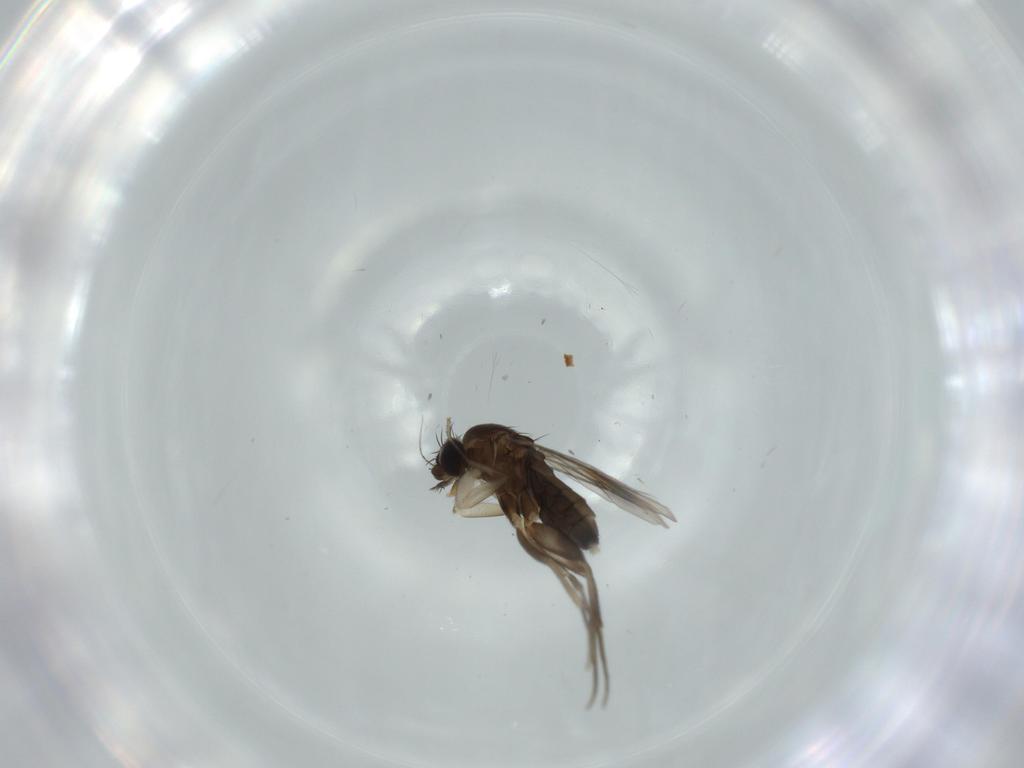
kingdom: Animalia
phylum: Arthropoda
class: Insecta
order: Diptera
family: Phoridae
